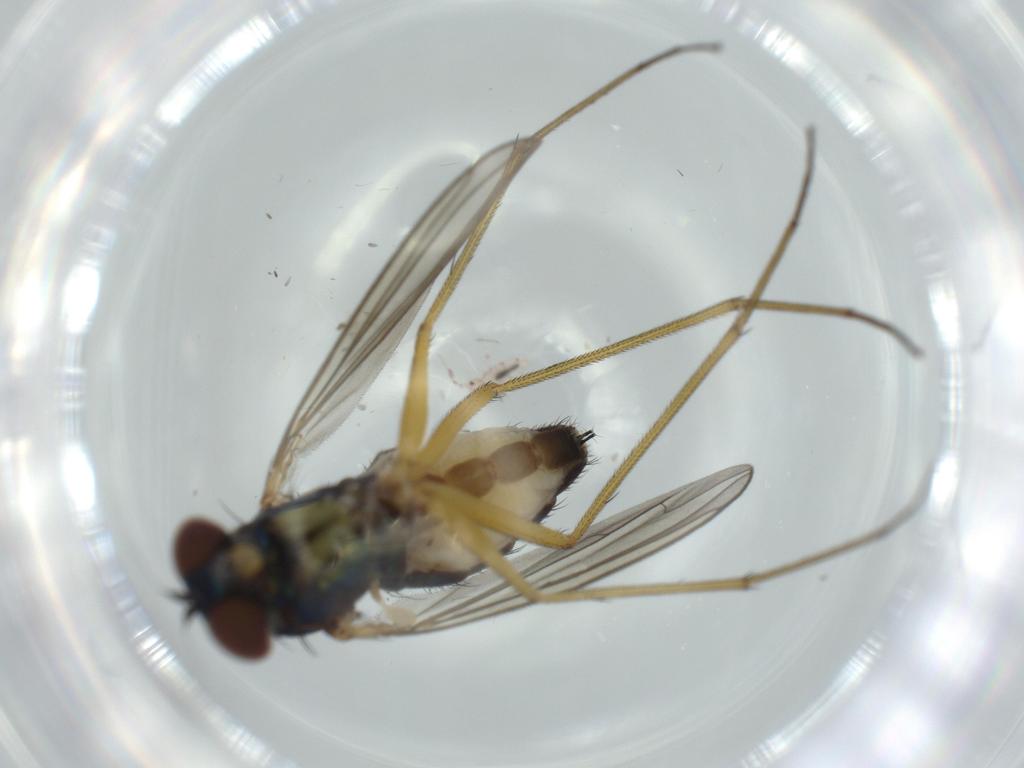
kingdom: Animalia
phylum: Arthropoda
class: Insecta
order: Diptera
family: Dolichopodidae
